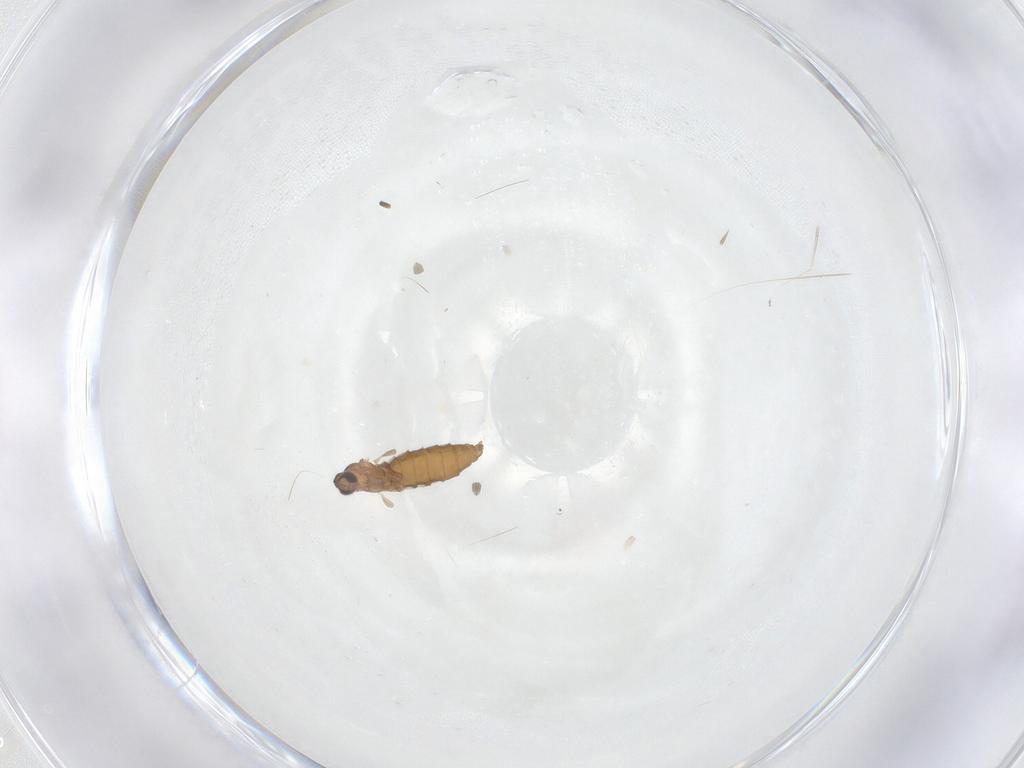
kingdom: Animalia
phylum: Arthropoda
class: Insecta
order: Diptera
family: Cecidomyiidae
